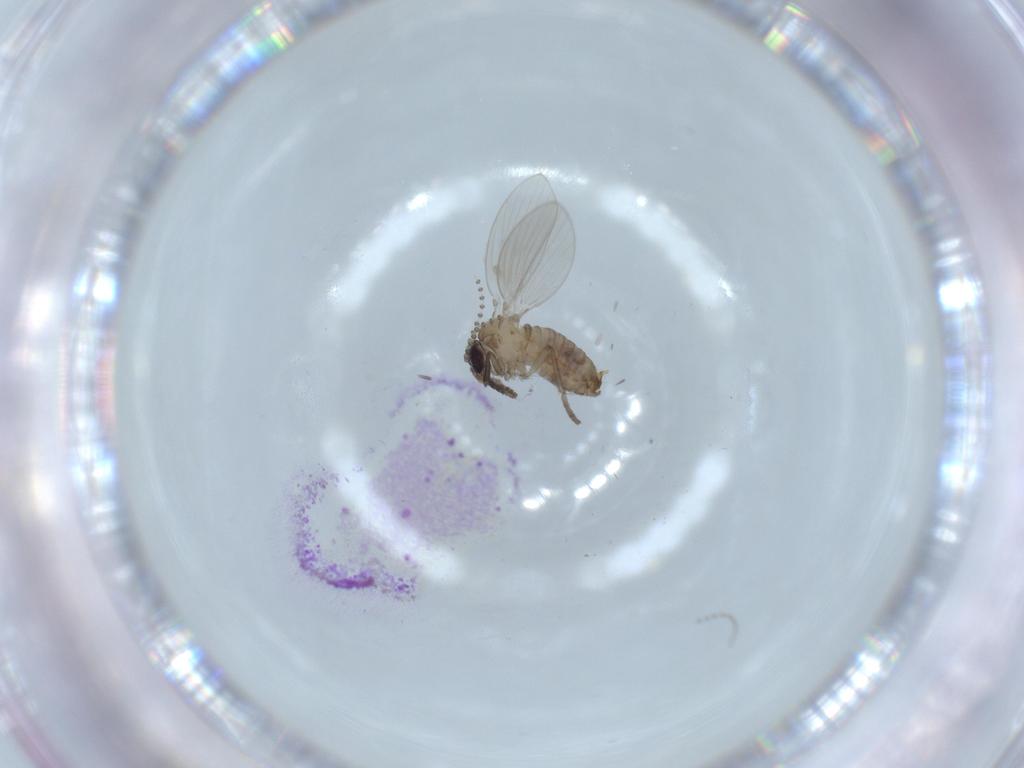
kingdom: Animalia
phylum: Arthropoda
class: Insecta
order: Diptera
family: Psychodidae
